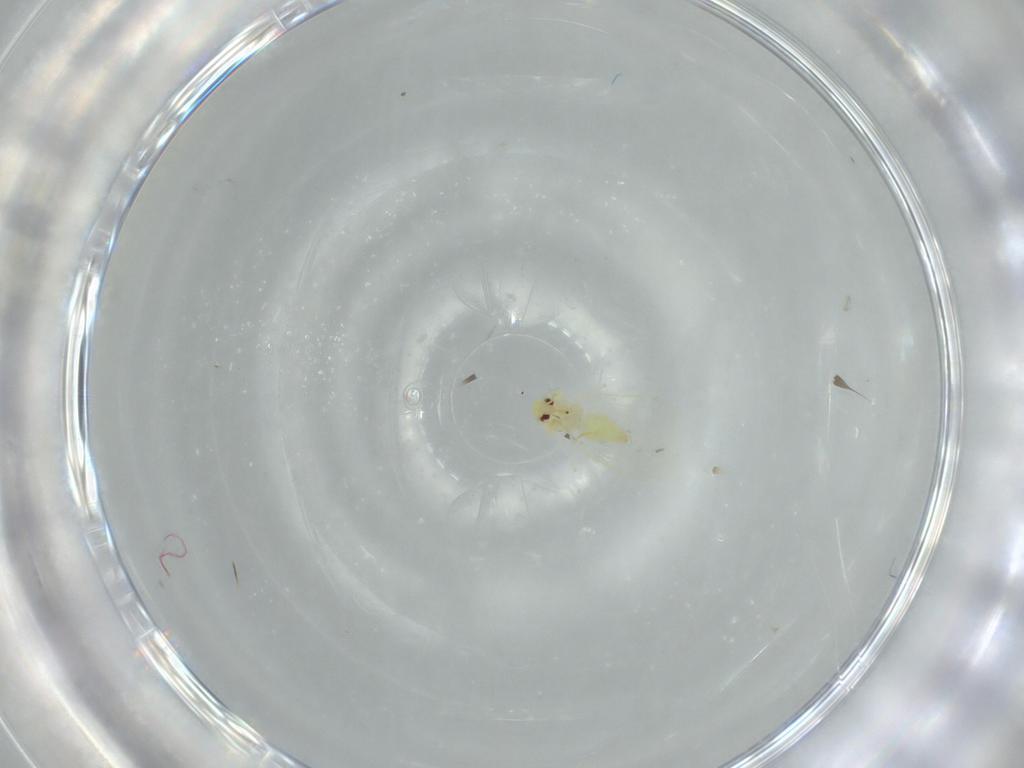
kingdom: Animalia
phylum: Arthropoda
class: Insecta
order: Hemiptera
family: Aleyrodidae
